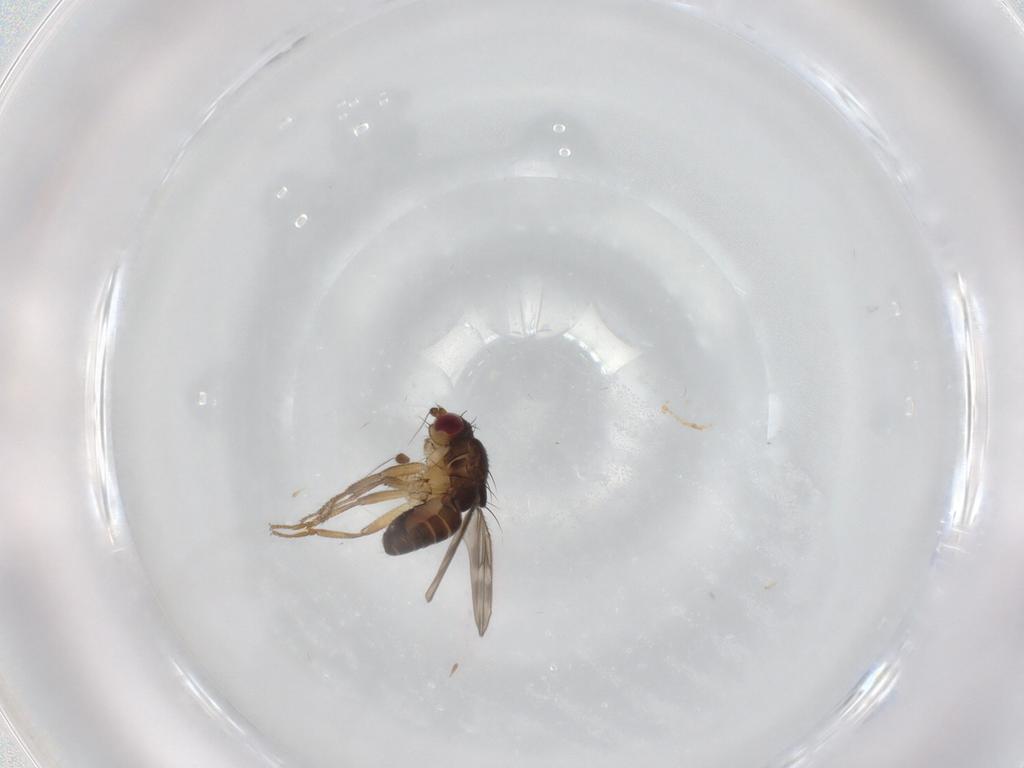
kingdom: Animalia
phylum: Arthropoda
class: Insecta
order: Diptera
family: Sphaeroceridae
